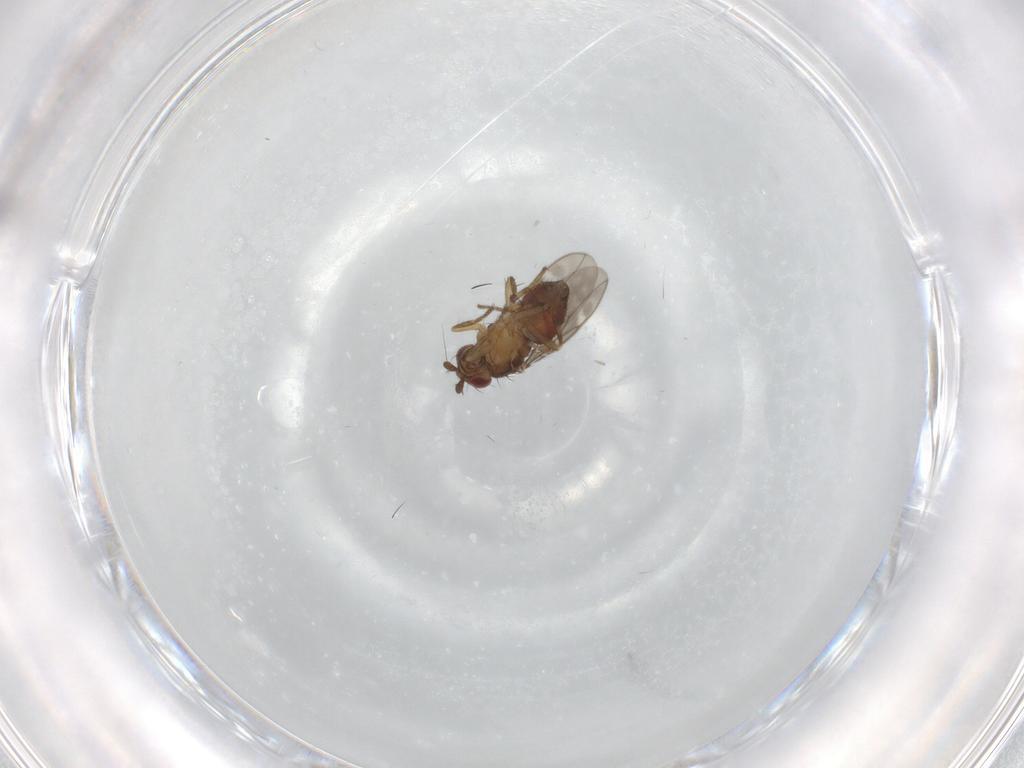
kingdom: Animalia
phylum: Arthropoda
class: Insecta
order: Diptera
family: Sphaeroceridae
